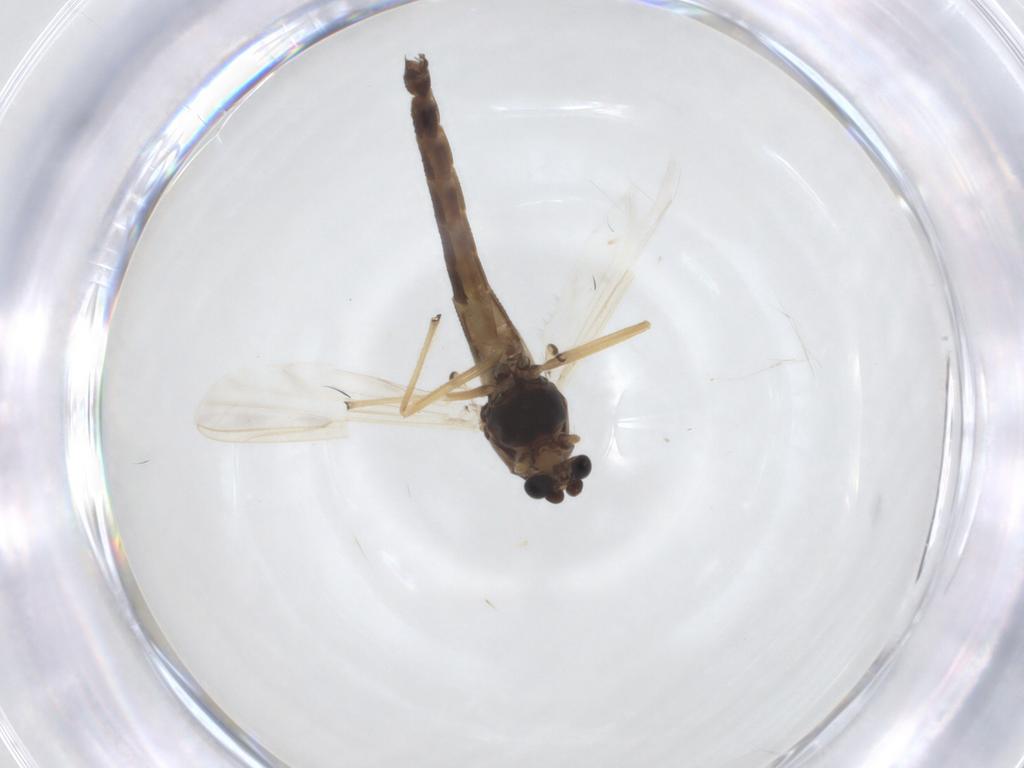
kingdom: Animalia
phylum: Arthropoda
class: Insecta
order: Diptera
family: Chironomidae
